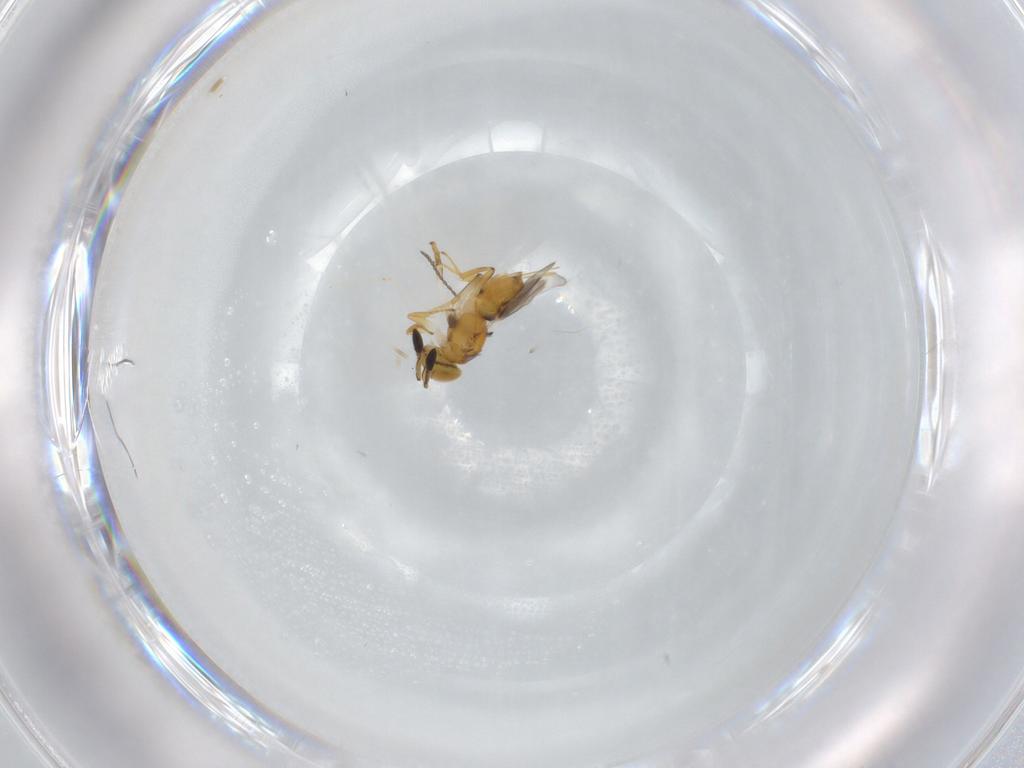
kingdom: Animalia
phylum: Arthropoda
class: Insecta
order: Hymenoptera
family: Encyrtidae
